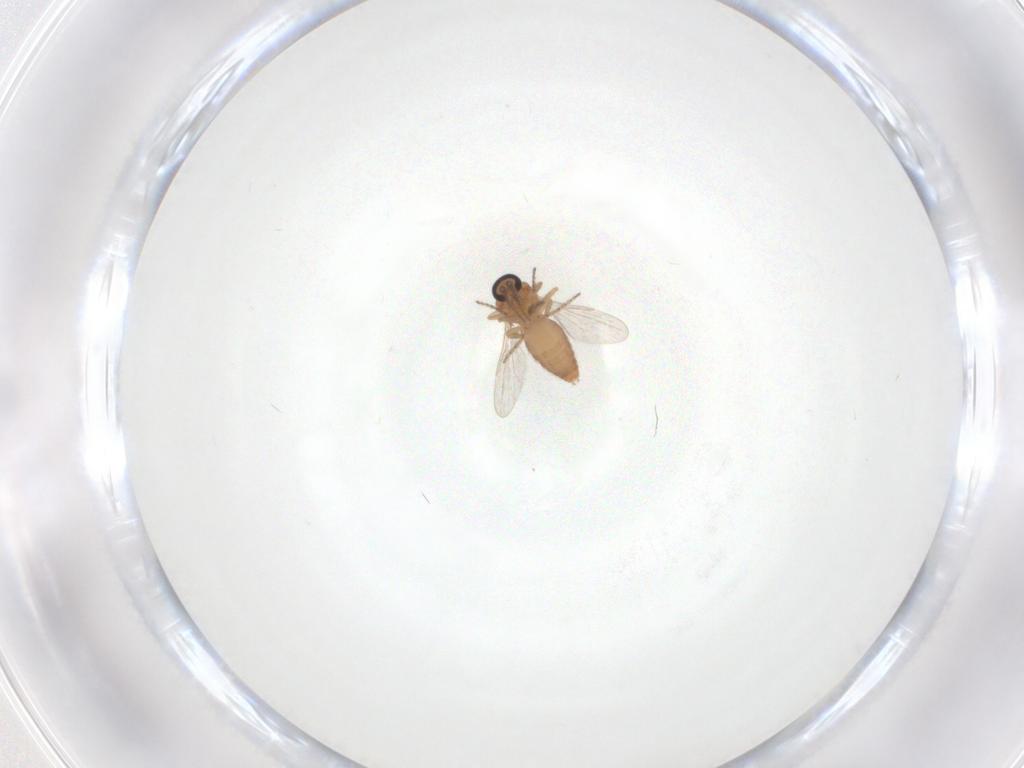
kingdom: Animalia
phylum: Arthropoda
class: Insecta
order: Diptera
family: Ceratopogonidae
